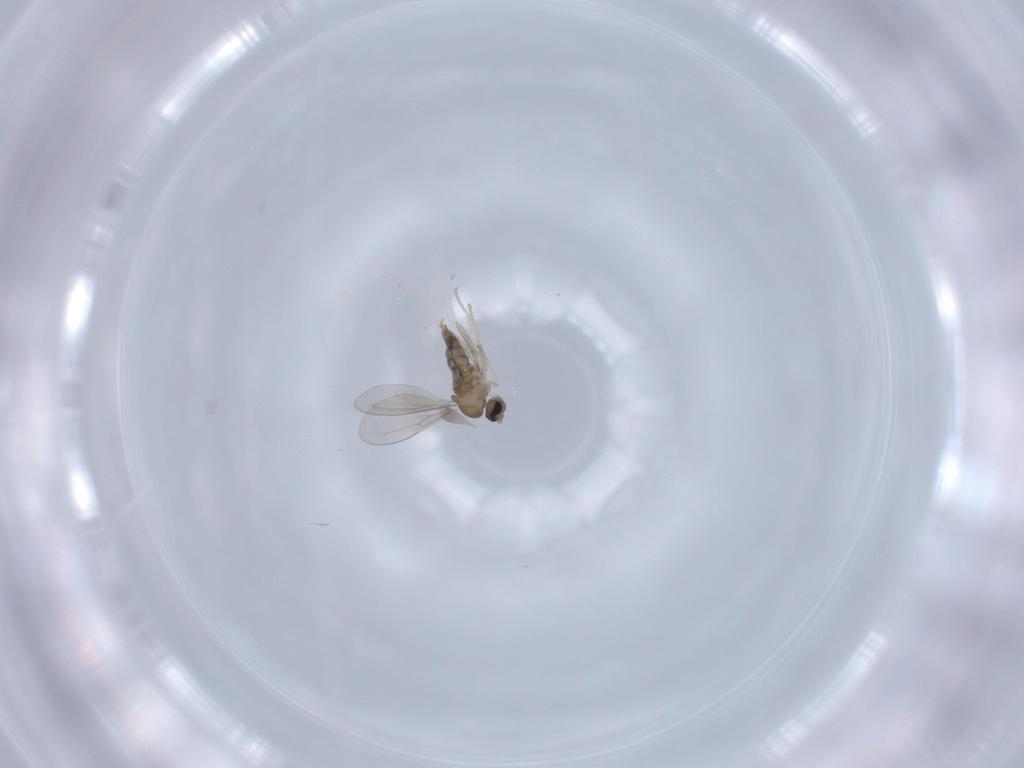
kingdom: Animalia
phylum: Arthropoda
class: Insecta
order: Diptera
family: Cecidomyiidae
